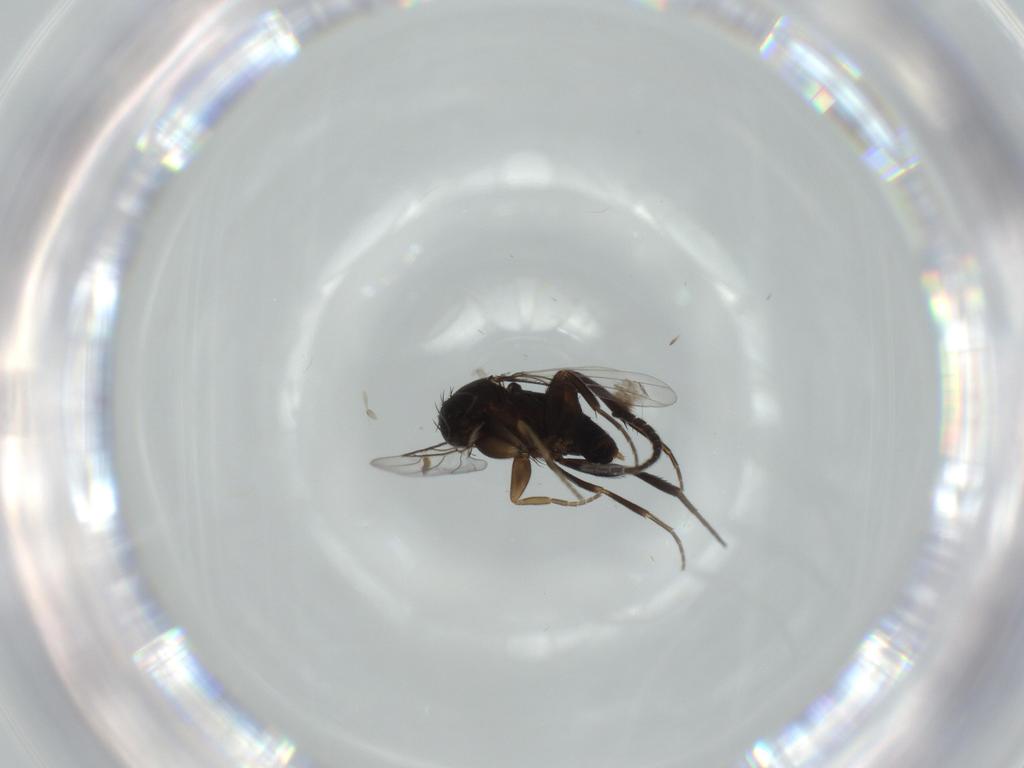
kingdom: Animalia
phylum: Arthropoda
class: Insecta
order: Diptera
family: Phoridae
